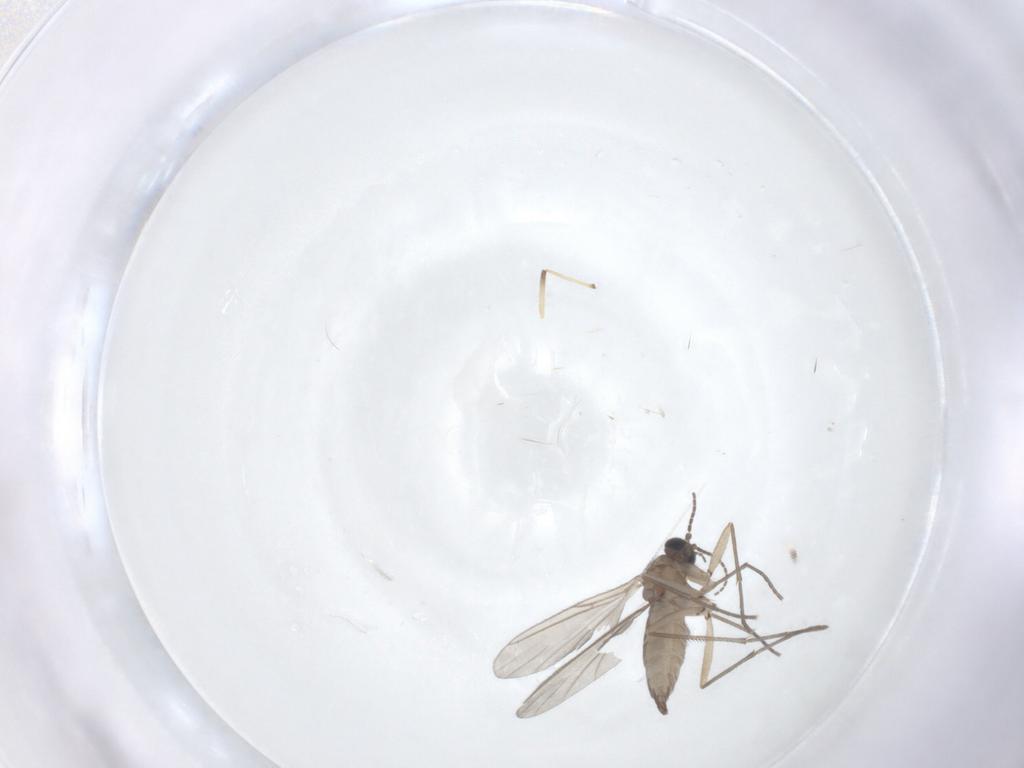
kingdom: Animalia
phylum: Arthropoda
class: Insecta
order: Diptera
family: Sciaridae
